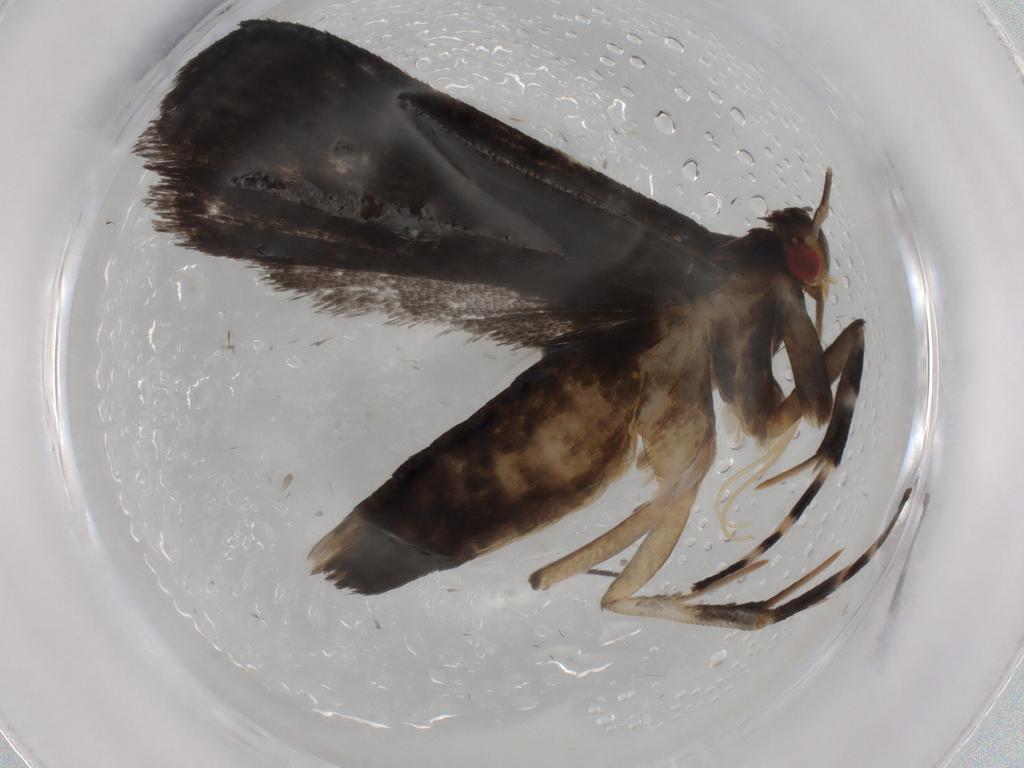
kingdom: Animalia
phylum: Arthropoda
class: Insecta
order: Lepidoptera
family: Gelechiidae
